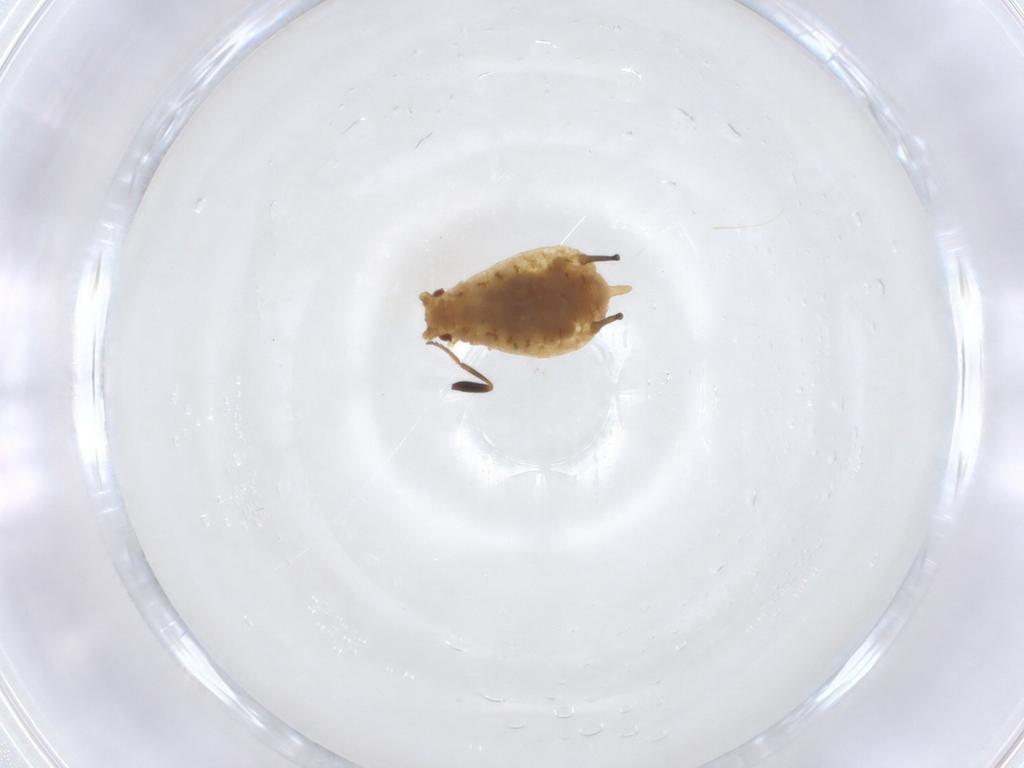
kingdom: Animalia
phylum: Arthropoda
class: Insecta
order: Hemiptera
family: Aphididae
